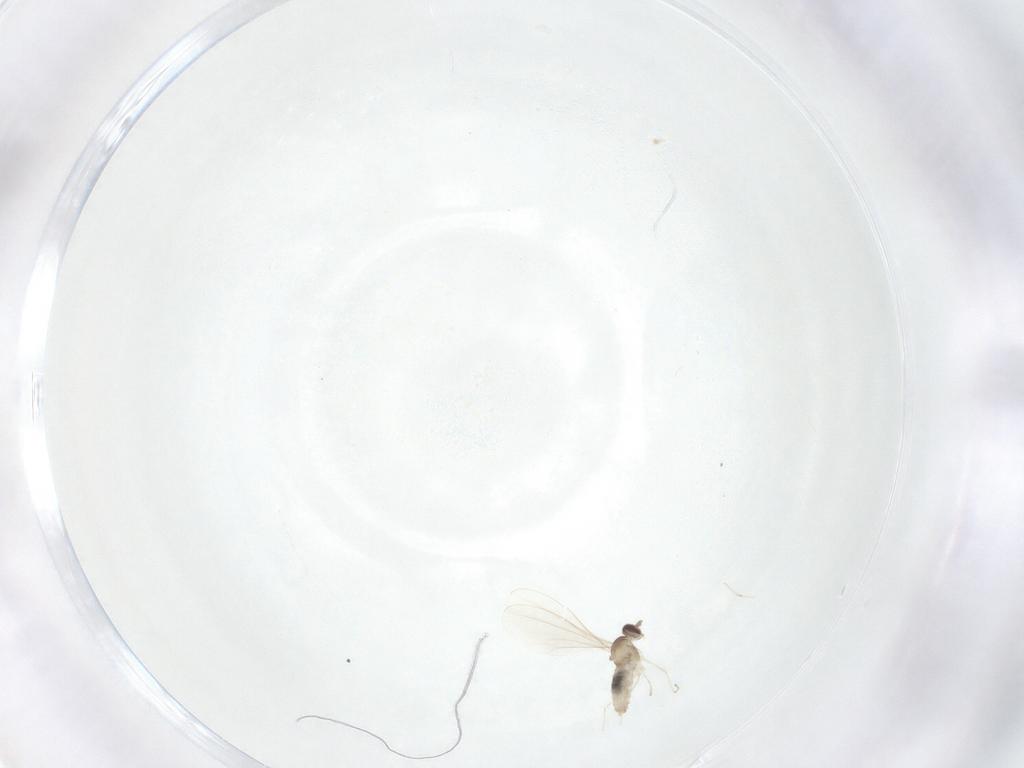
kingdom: Animalia
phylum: Arthropoda
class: Insecta
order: Diptera
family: Cecidomyiidae
